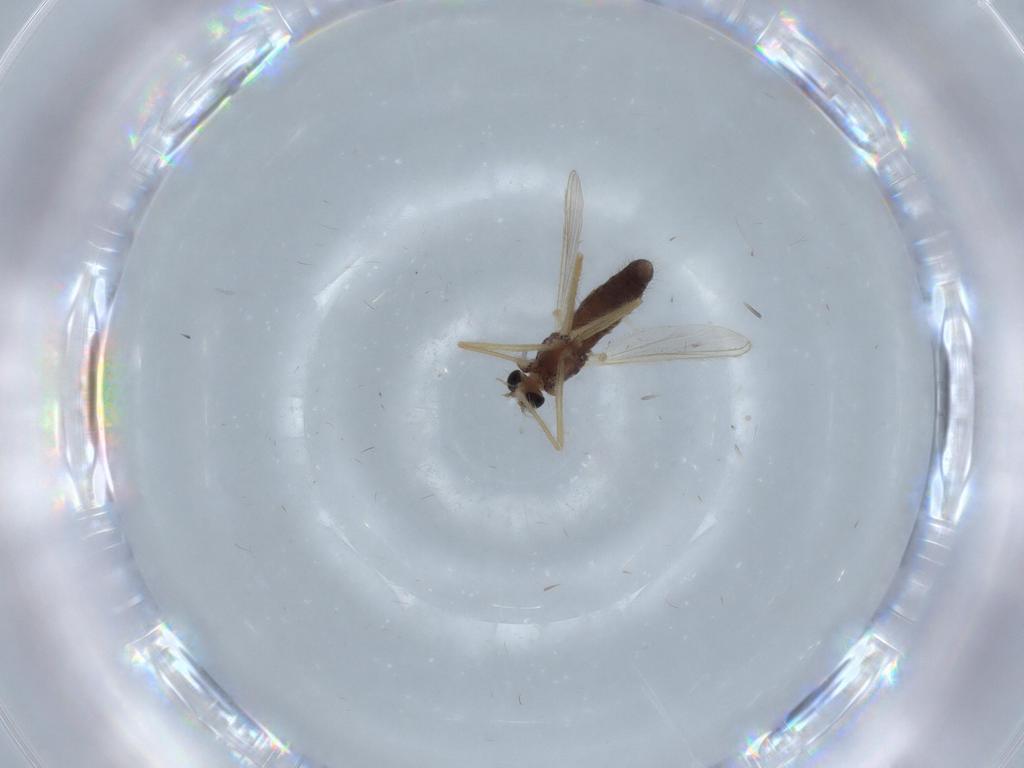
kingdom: Animalia
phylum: Arthropoda
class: Insecta
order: Diptera
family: Chironomidae
